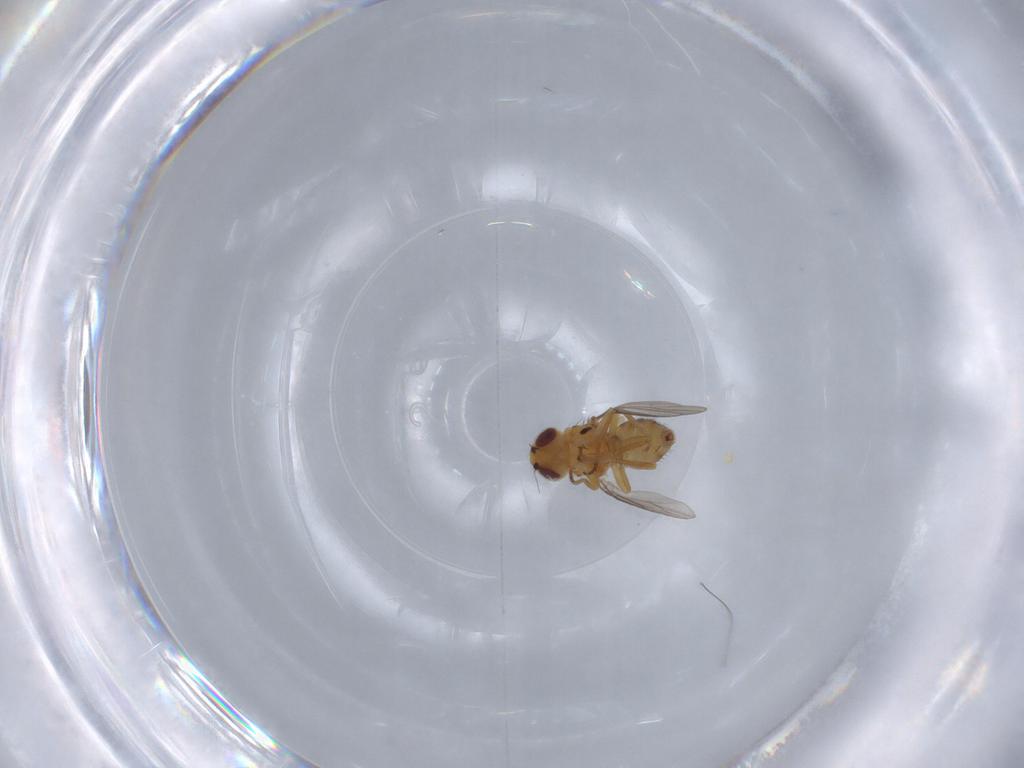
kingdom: Animalia
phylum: Arthropoda
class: Insecta
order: Diptera
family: Chloropidae
